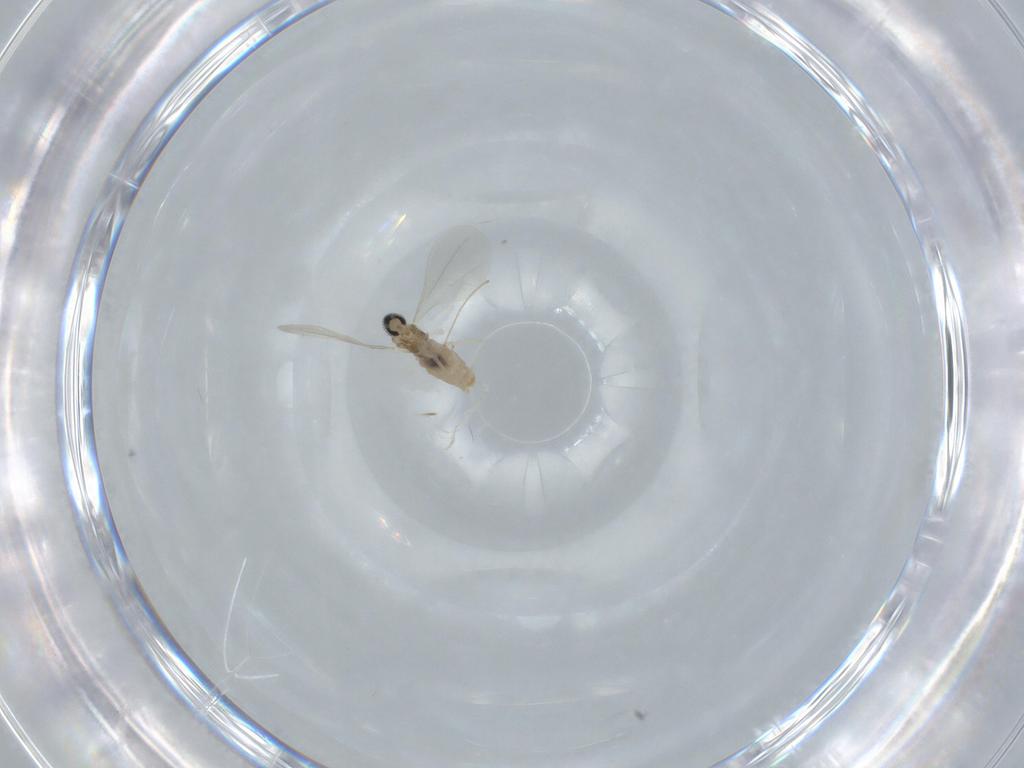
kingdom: Animalia
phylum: Arthropoda
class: Insecta
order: Diptera
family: Cecidomyiidae
